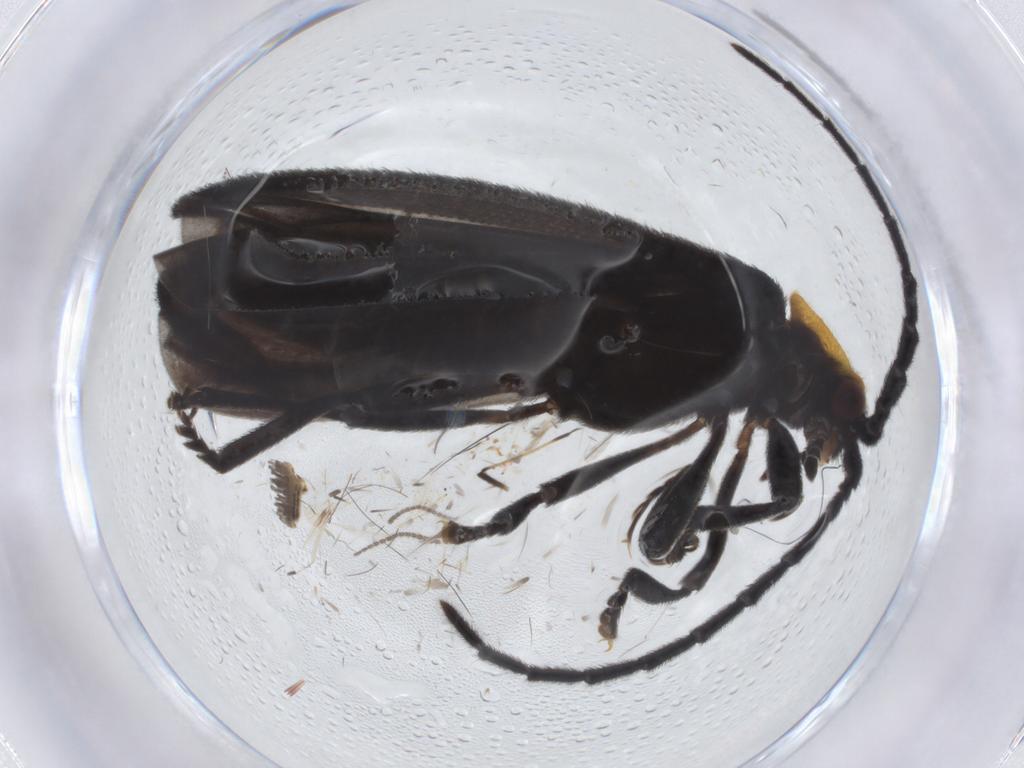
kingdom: Animalia
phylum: Arthropoda
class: Insecta
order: Coleoptera
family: Lycidae
